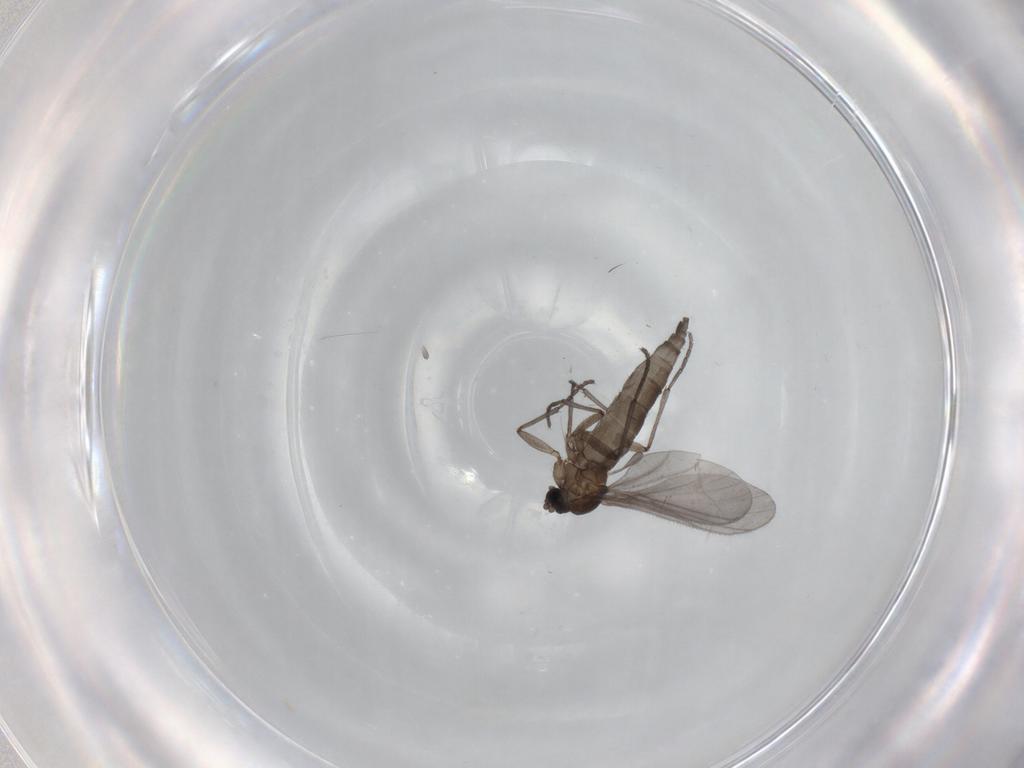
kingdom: Animalia
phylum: Arthropoda
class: Insecta
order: Diptera
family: Sciaridae
